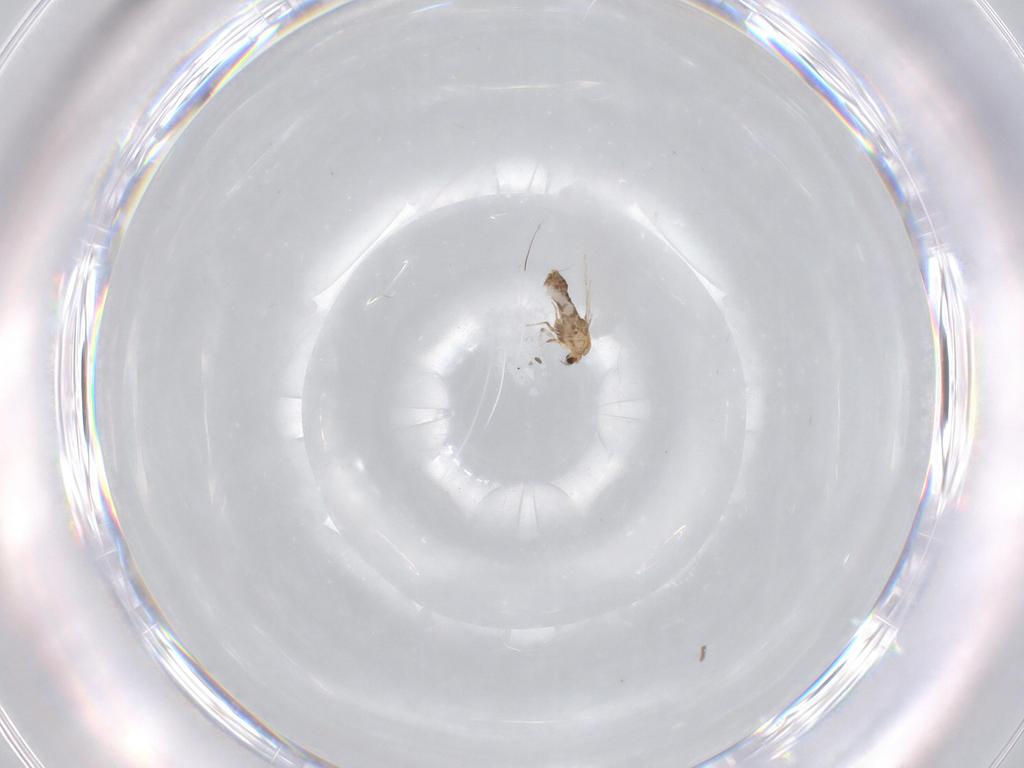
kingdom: Animalia
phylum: Arthropoda
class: Insecta
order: Diptera
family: Chironomidae
